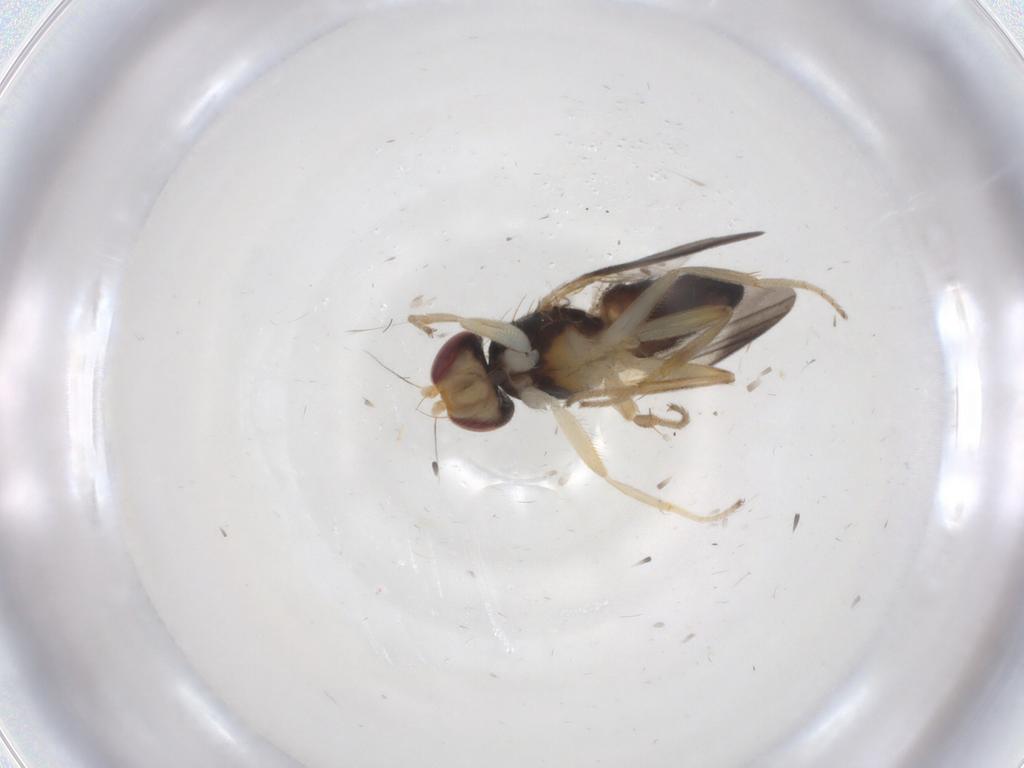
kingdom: Animalia
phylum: Arthropoda
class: Insecta
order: Diptera
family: Clusiidae
